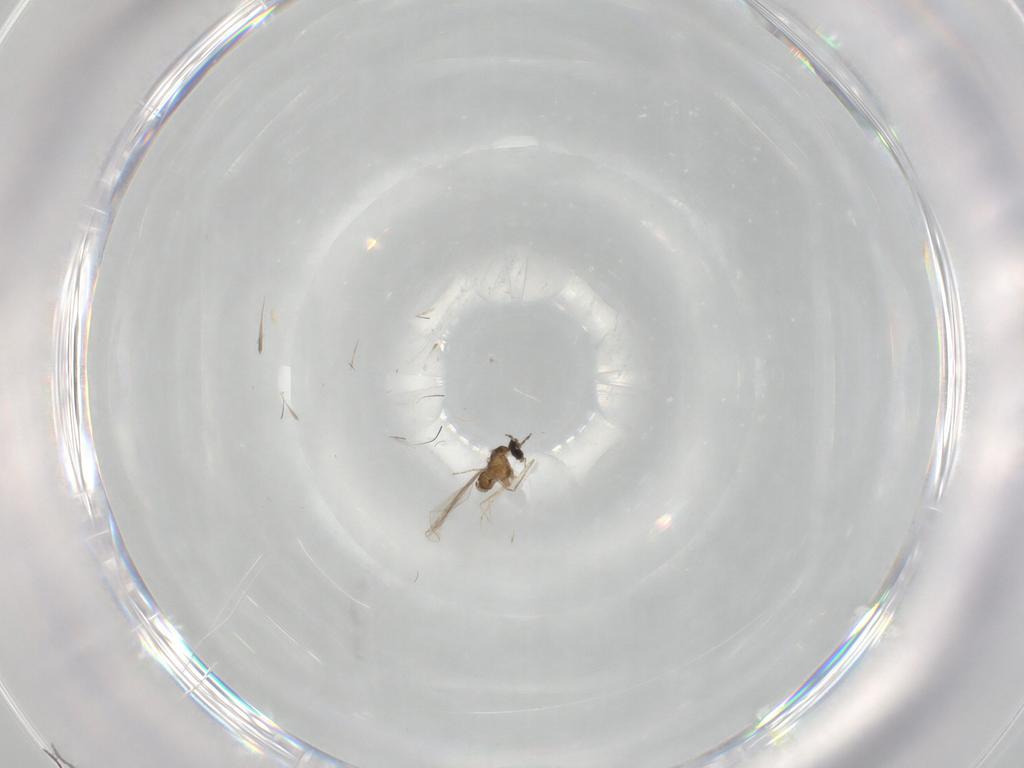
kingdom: Animalia
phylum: Arthropoda
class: Insecta
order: Diptera
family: Cecidomyiidae
